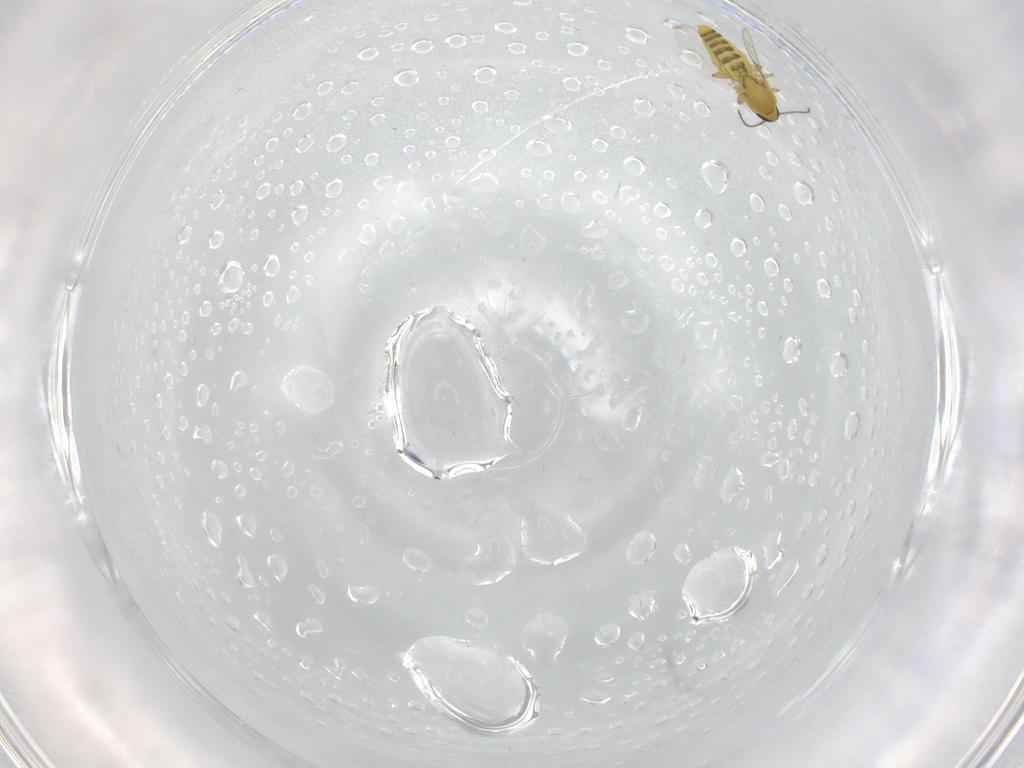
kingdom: Animalia
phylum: Arthropoda
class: Insecta
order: Diptera
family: Ceratopogonidae
